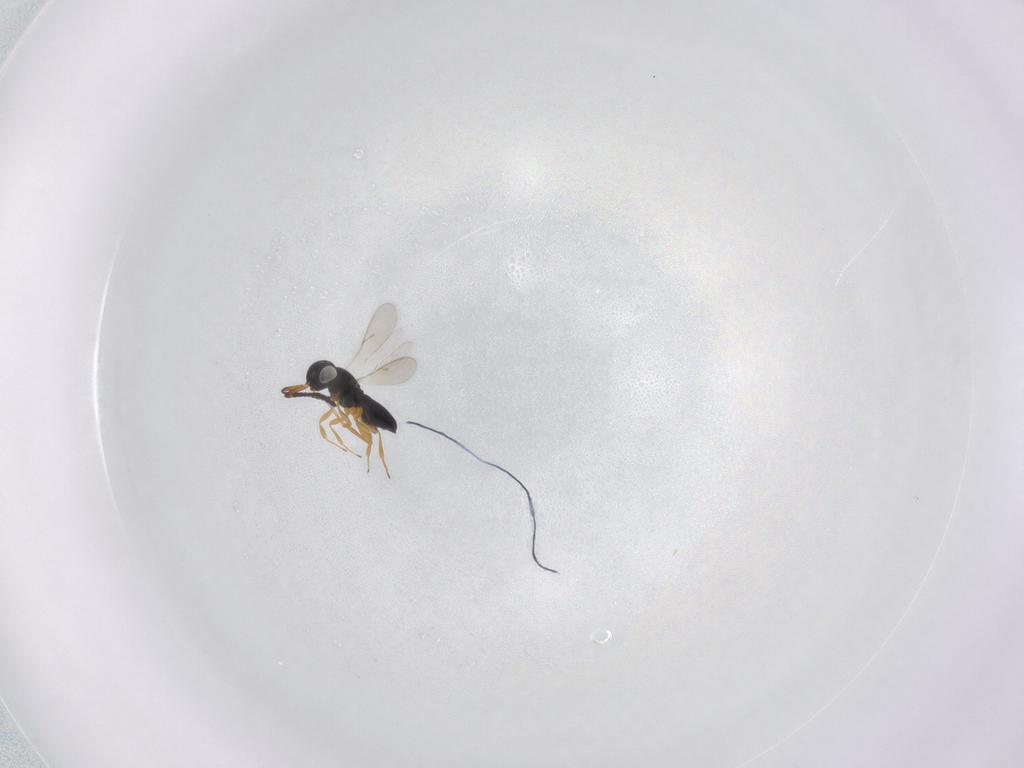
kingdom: Animalia
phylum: Arthropoda
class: Insecta
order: Hymenoptera
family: Scelionidae
